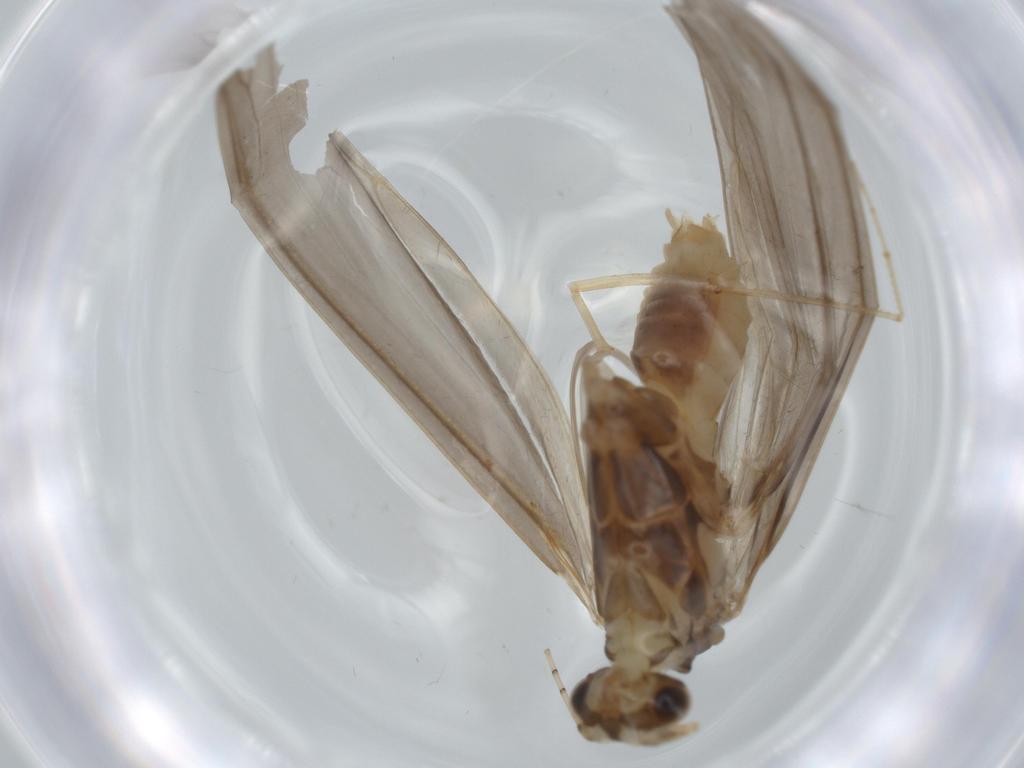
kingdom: Animalia
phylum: Arthropoda
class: Insecta
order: Trichoptera
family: Leptoceridae
